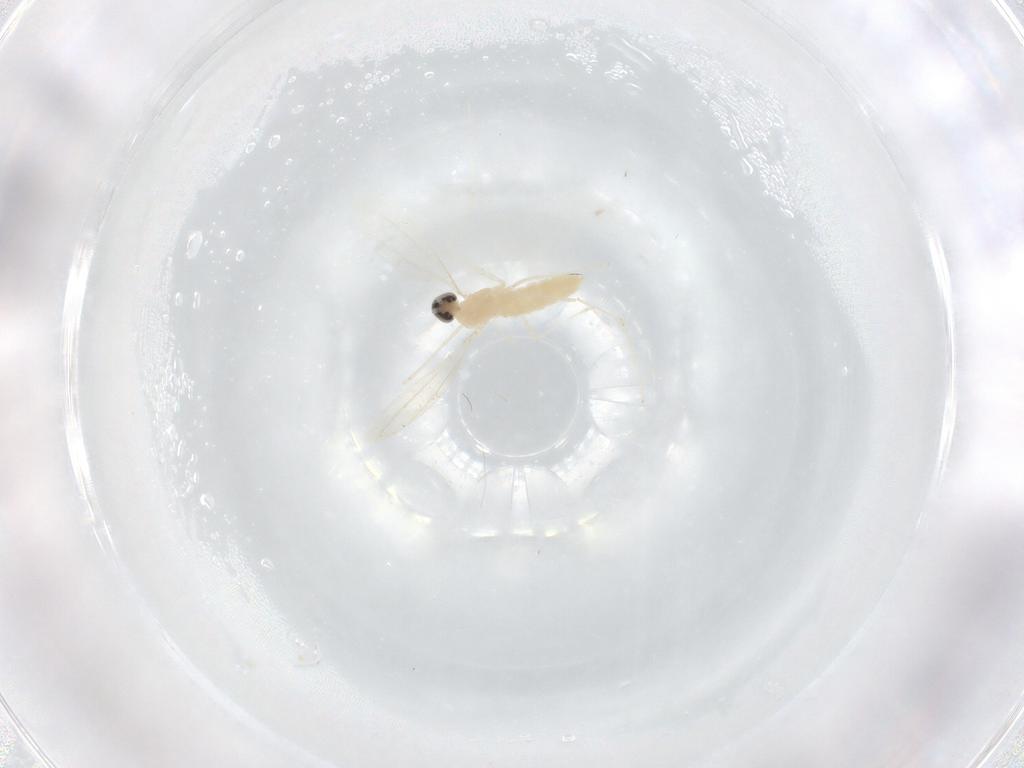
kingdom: Animalia
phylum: Arthropoda
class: Insecta
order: Diptera
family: Cecidomyiidae
